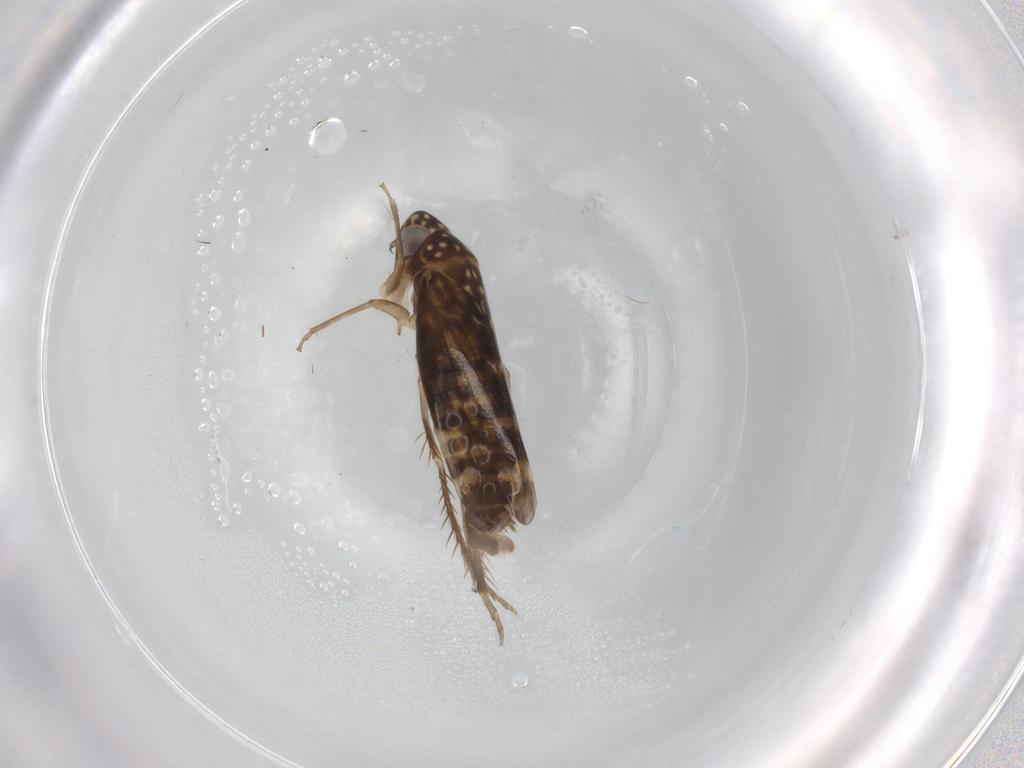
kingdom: Animalia
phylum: Arthropoda
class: Insecta
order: Hemiptera
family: Cicadellidae
